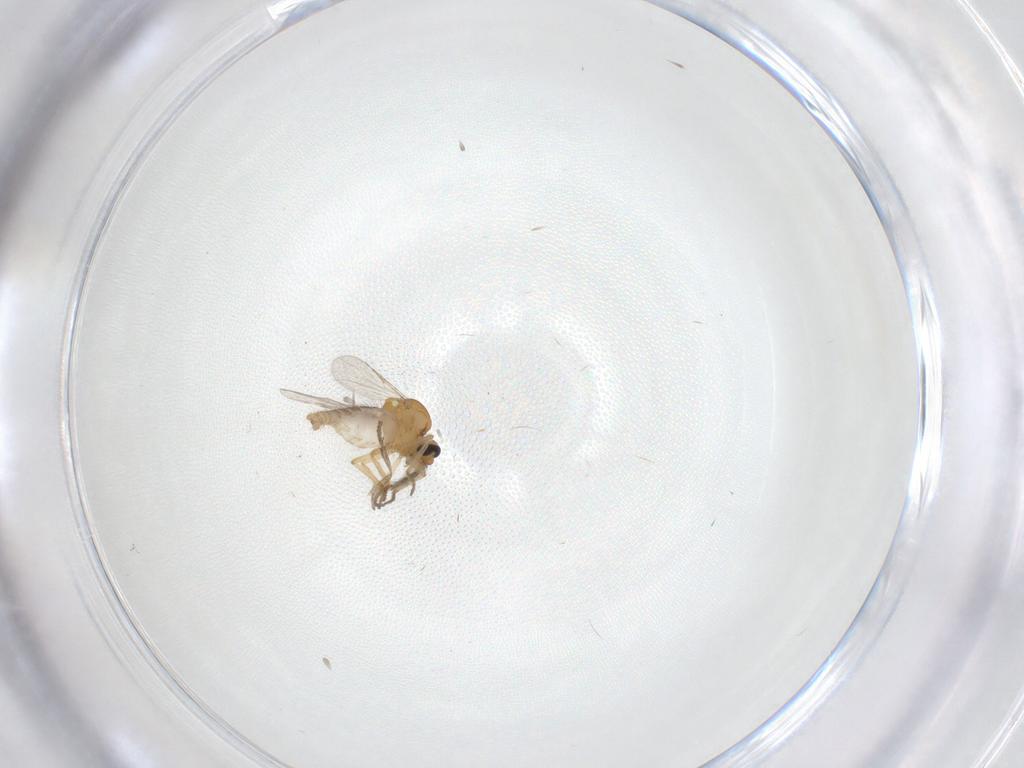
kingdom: Animalia
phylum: Arthropoda
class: Insecta
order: Diptera
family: Ceratopogonidae
